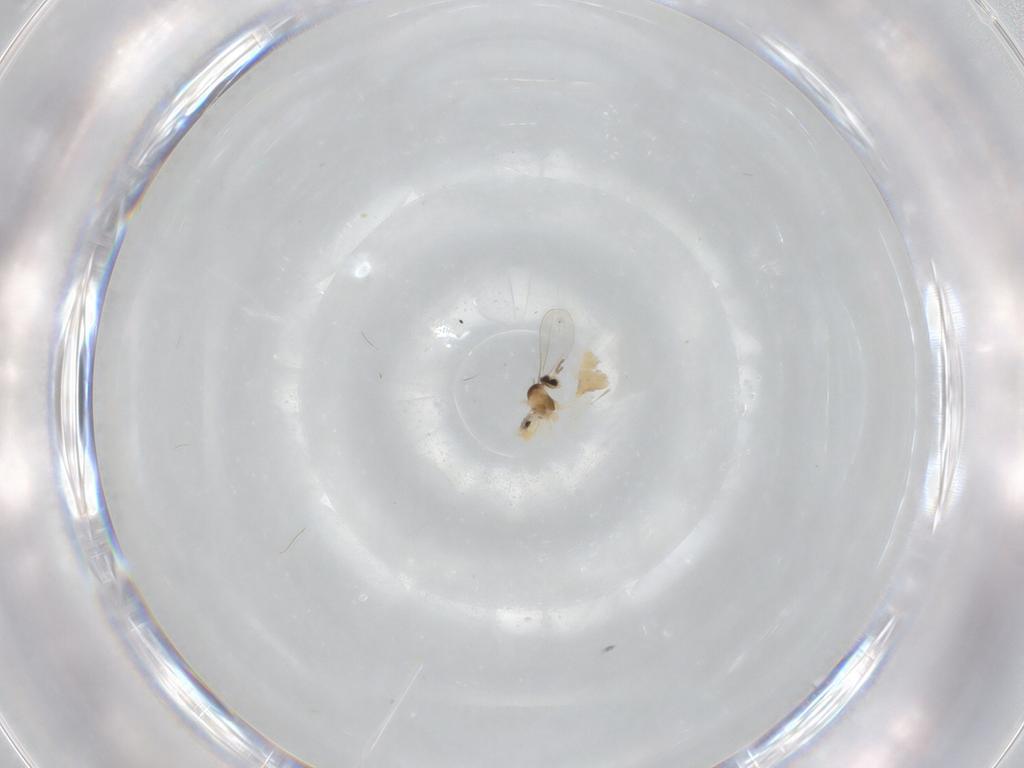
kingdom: Animalia
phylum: Arthropoda
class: Insecta
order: Diptera
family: Cecidomyiidae
